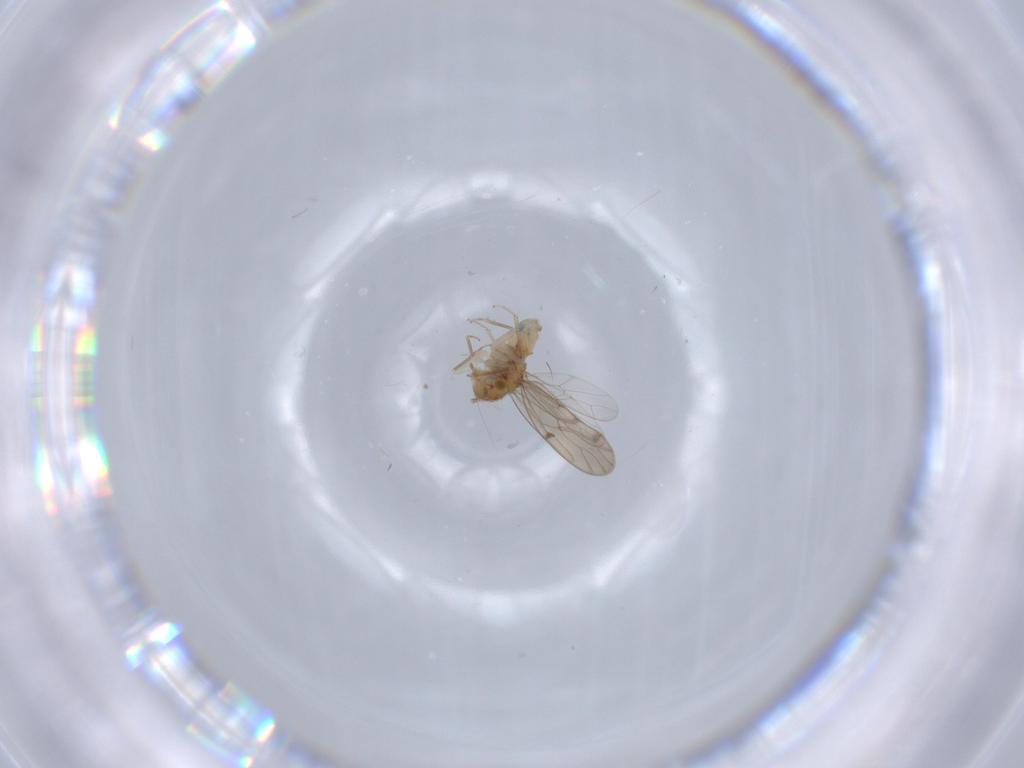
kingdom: Animalia
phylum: Arthropoda
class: Insecta
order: Psocodea
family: Ectopsocidae
